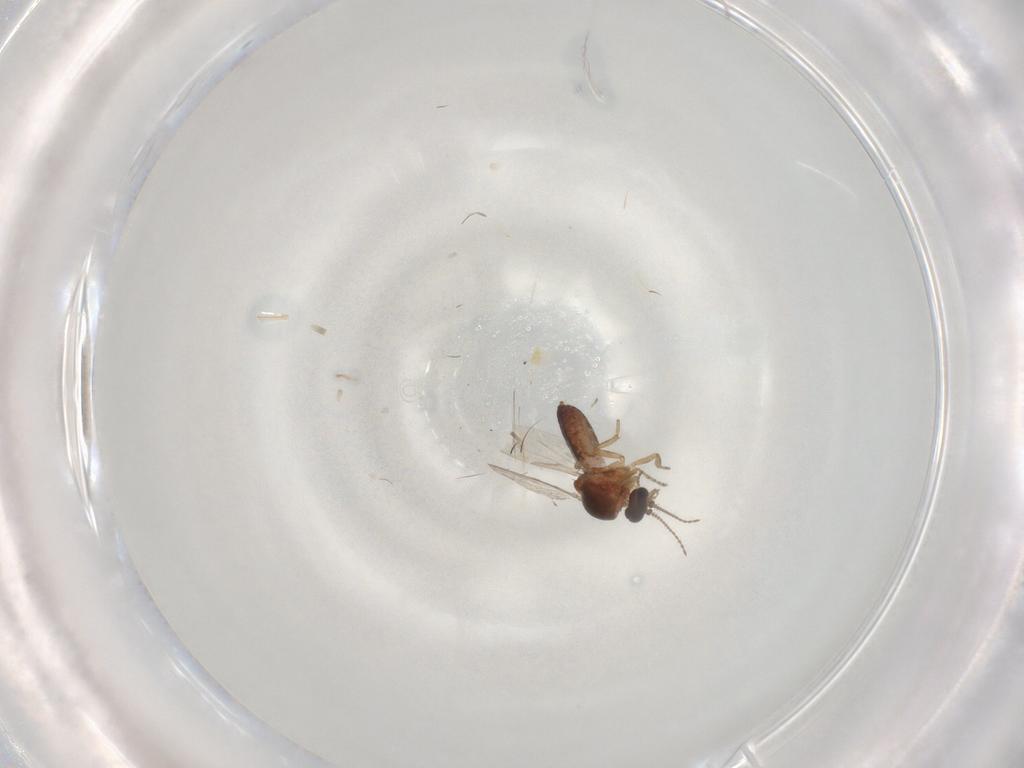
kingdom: Animalia
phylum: Arthropoda
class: Insecta
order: Diptera
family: Ceratopogonidae
